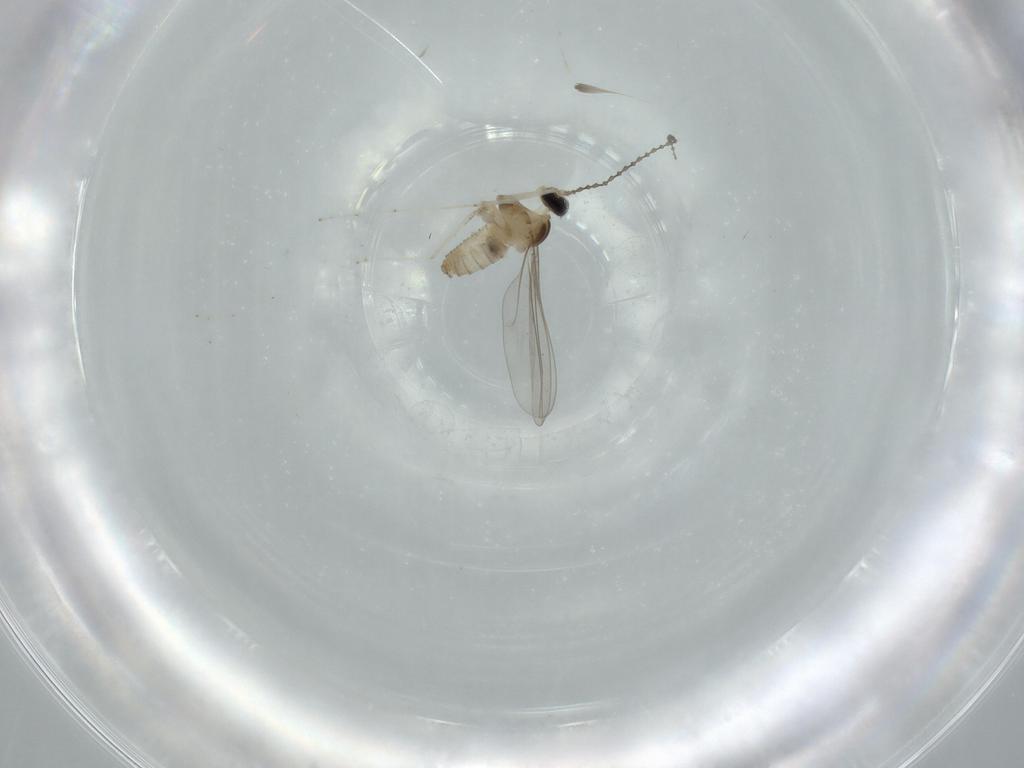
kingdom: Animalia
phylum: Arthropoda
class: Insecta
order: Diptera
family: Cecidomyiidae
